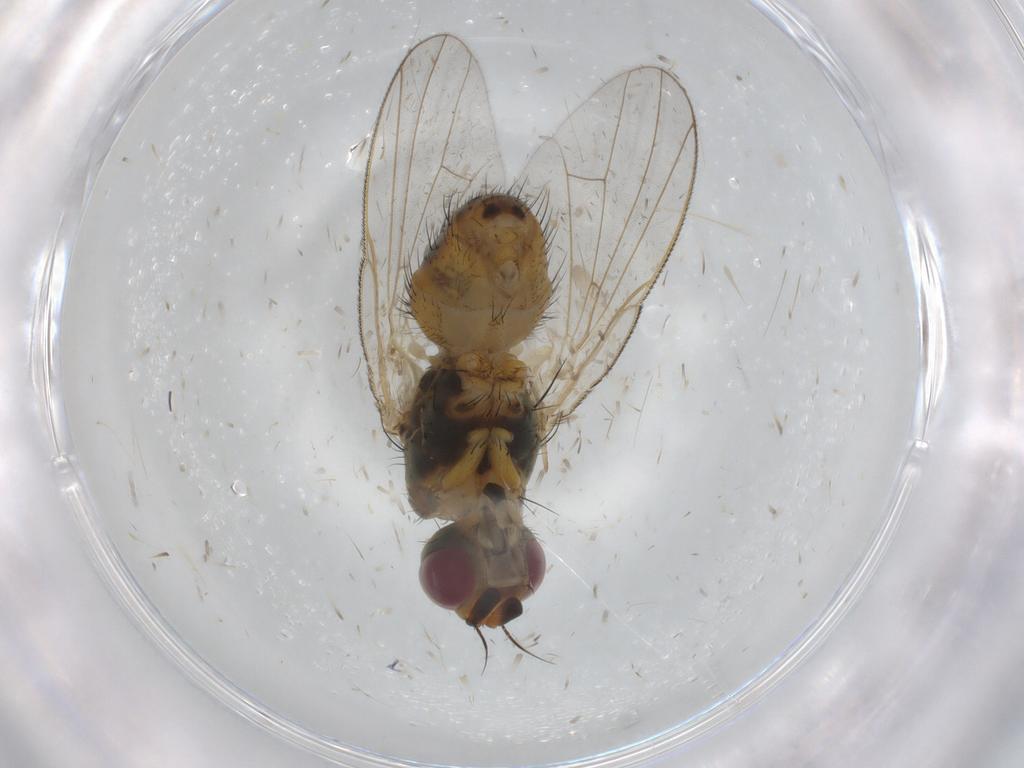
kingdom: Animalia
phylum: Arthropoda
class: Insecta
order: Diptera
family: Muscidae
